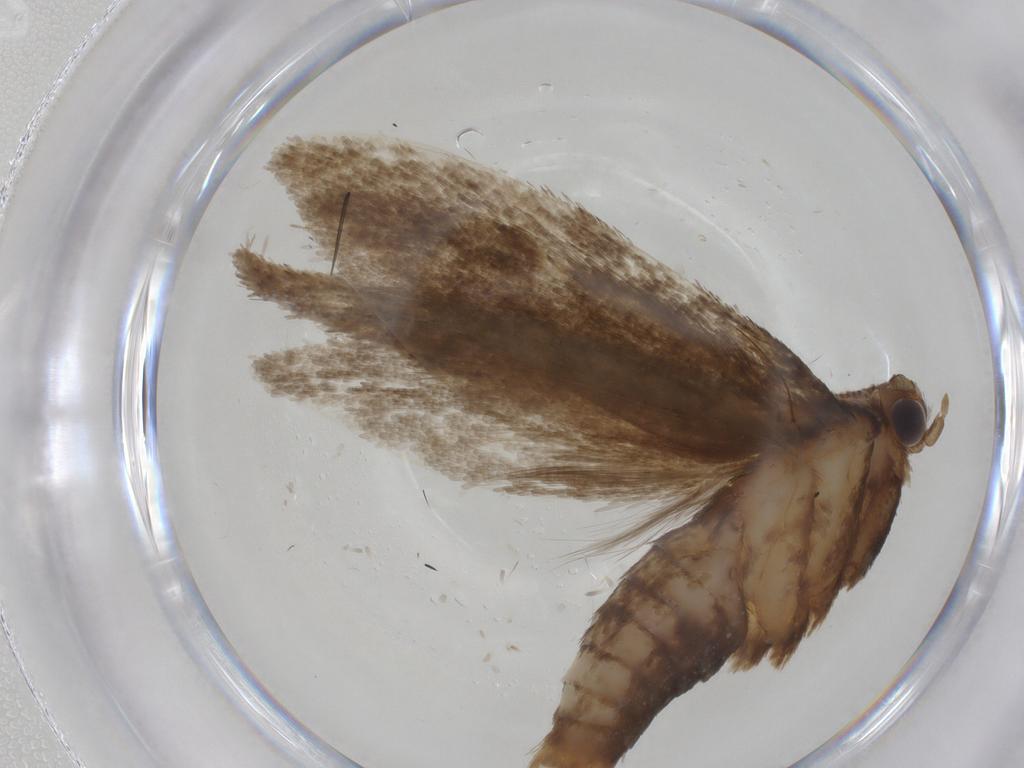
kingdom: Animalia
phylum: Arthropoda
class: Insecta
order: Lepidoptera
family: Tineidae
